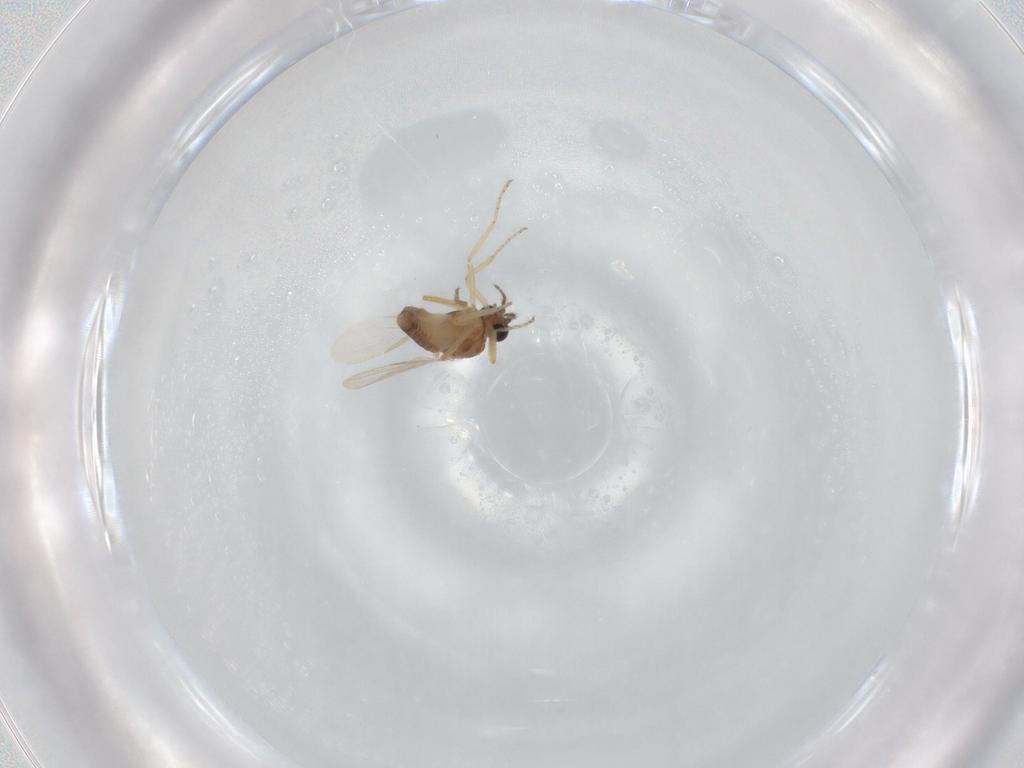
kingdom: Animalia
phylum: Arthropoda
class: Insecta
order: Diptera
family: Ceratopogonidae
